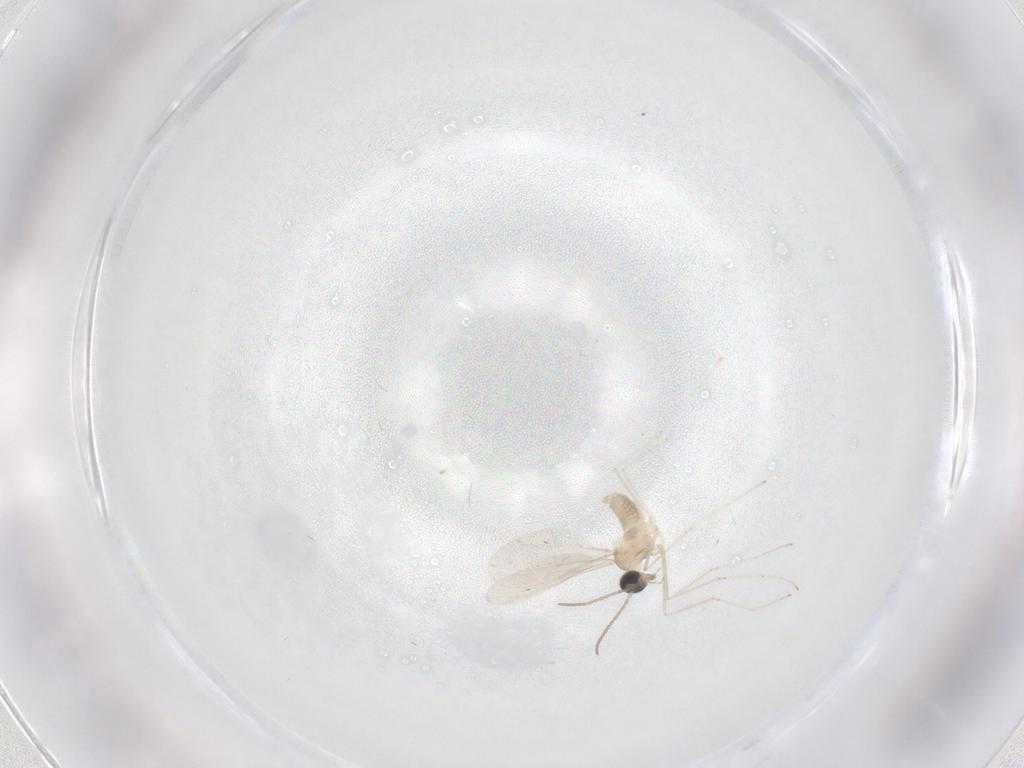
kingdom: Animalia
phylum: Arthropoda
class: Insecta
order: Diptera
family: Cecidomyiidae
